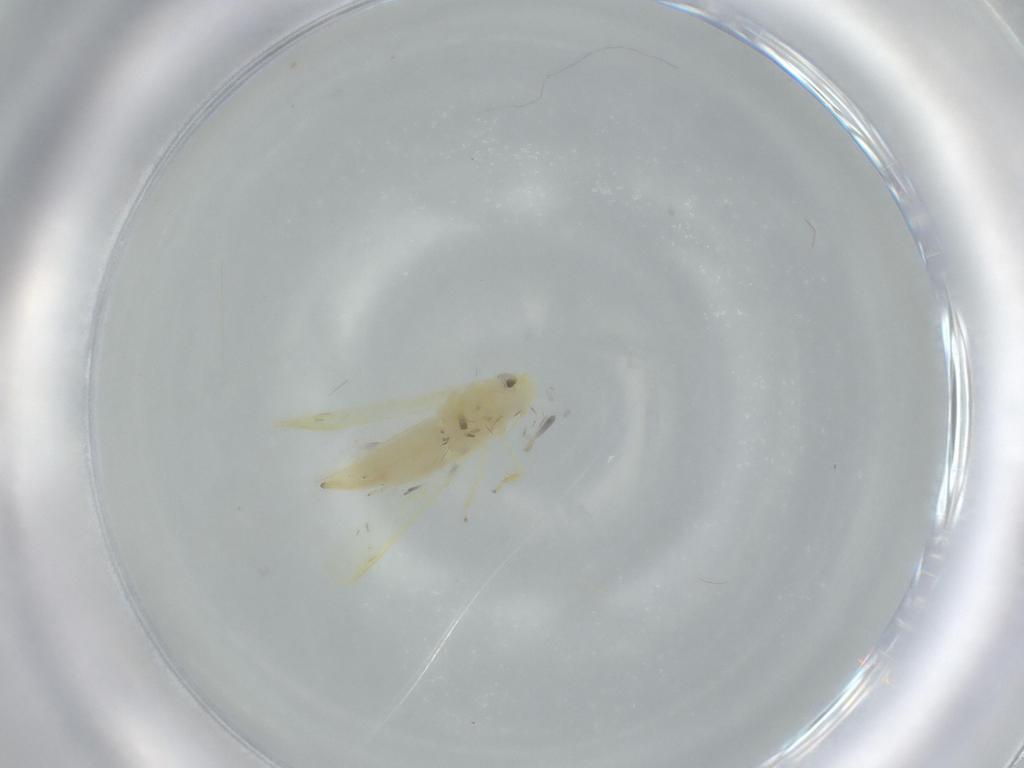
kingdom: Animalia
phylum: Arthropoda
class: Insecta
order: Hemiptera
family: Cicadellidae
